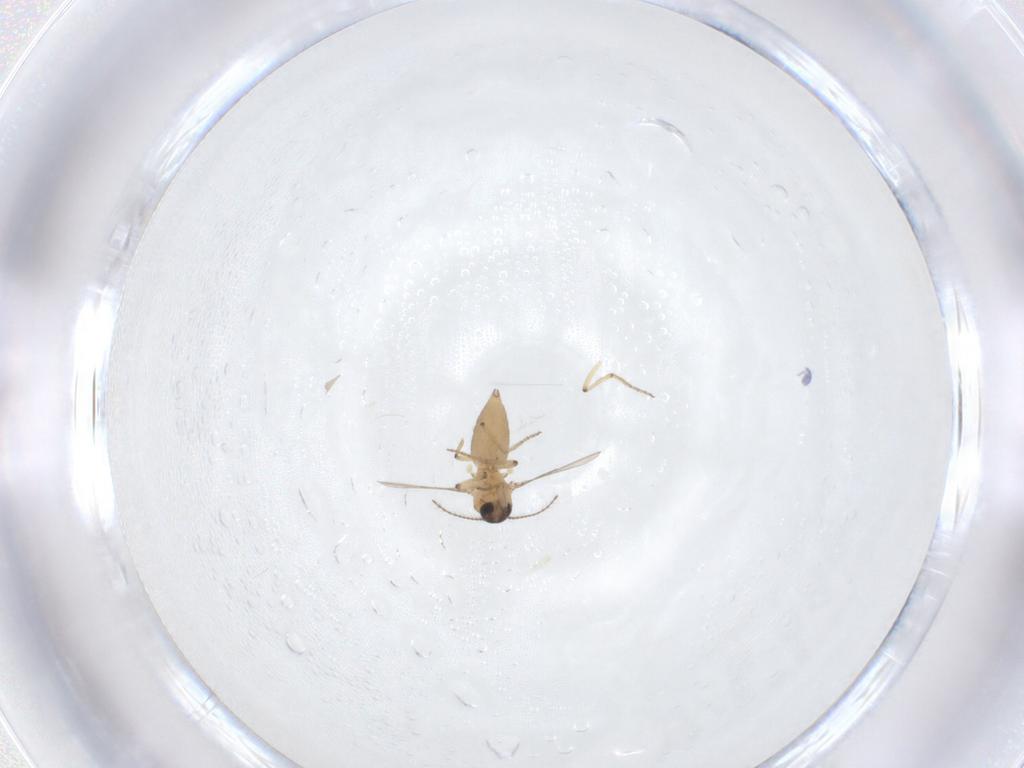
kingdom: Animalia
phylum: Arthropoda
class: Insecta
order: Diptera
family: Ceratopogonidae
